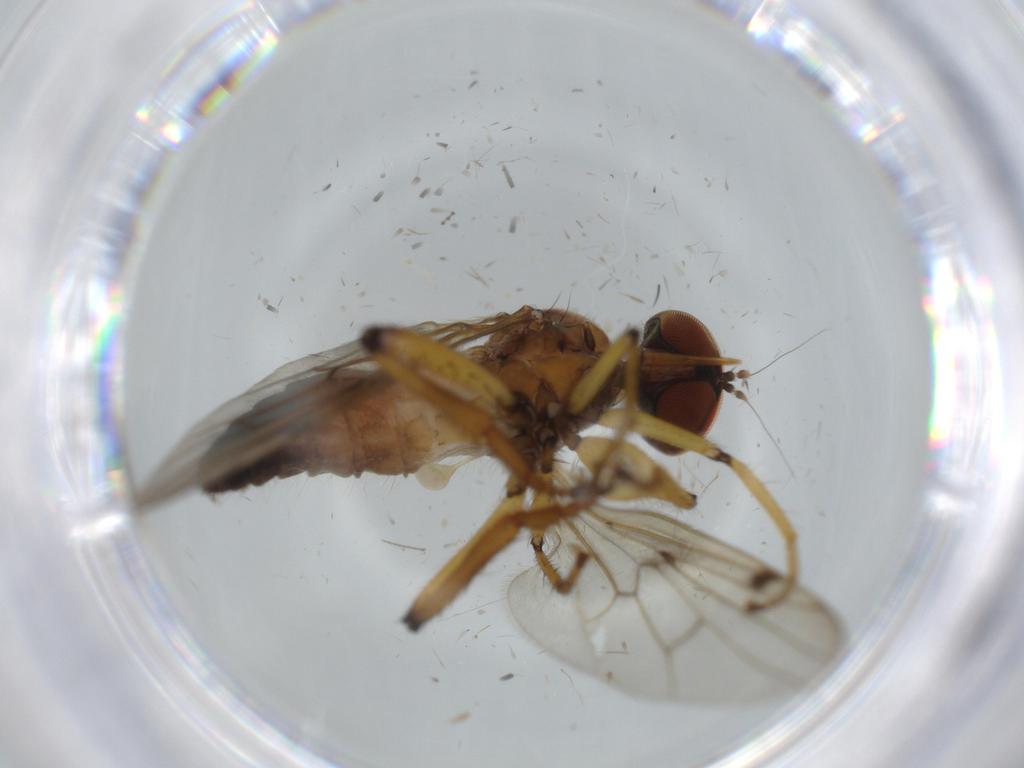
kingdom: Animalia
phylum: Arthropoda
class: Insecta
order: Diptera
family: Hybotidae
